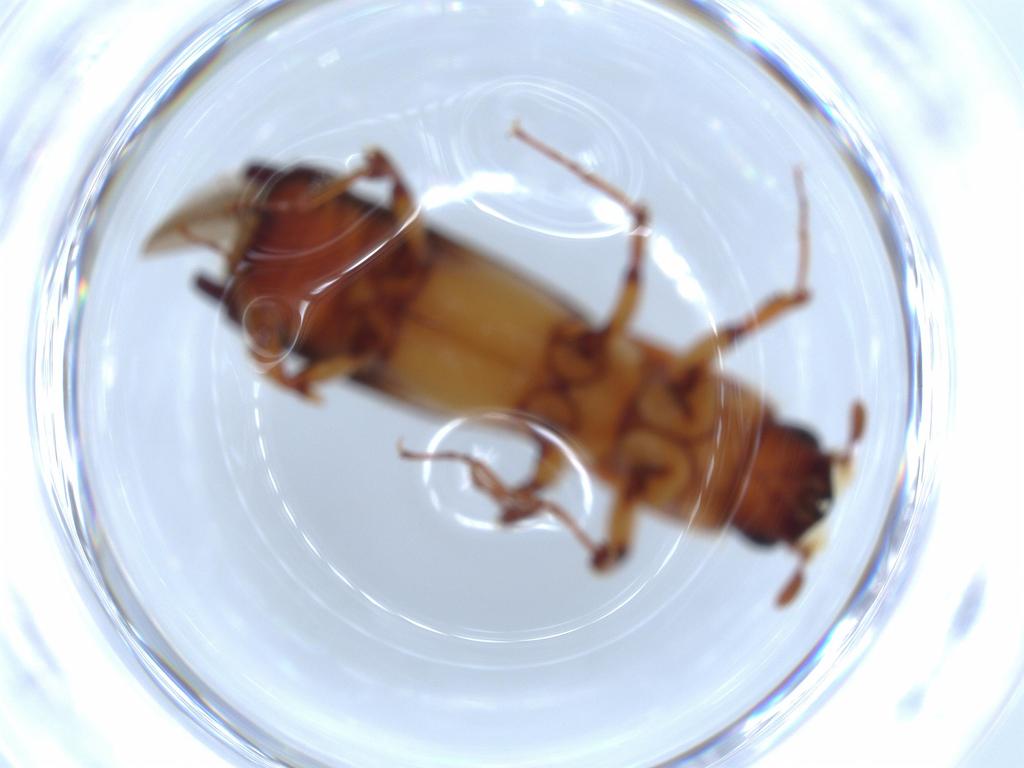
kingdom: Animalia
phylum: Arthropoda
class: Insecta
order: Coleoptera
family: Curculionidae
